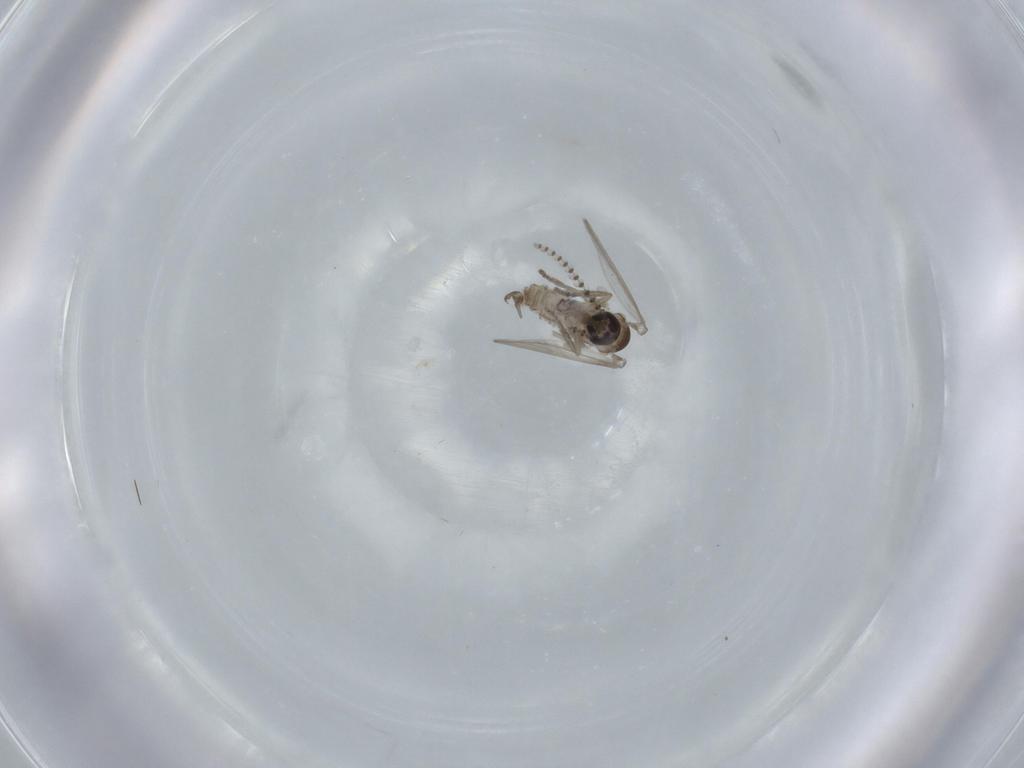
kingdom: Animalia
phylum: Arthropoda
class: Insecta
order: Diptera
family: Psychodidae
